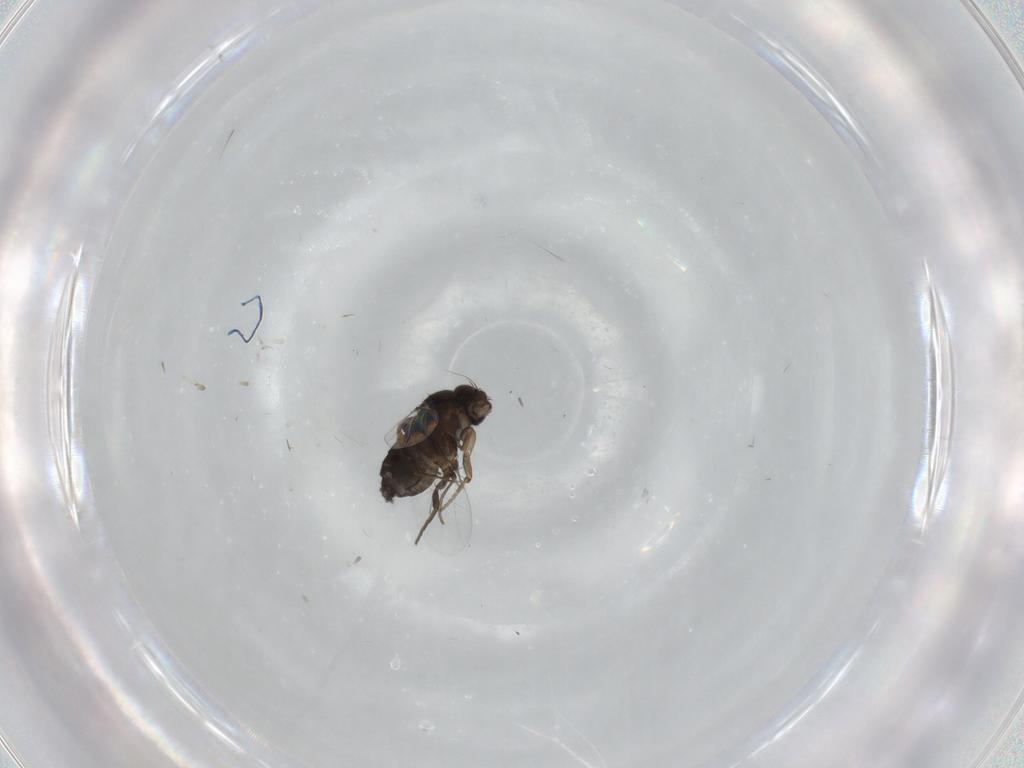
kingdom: Animalia
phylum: Arthropoda
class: Insecta
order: Diptera
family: Phoridae
